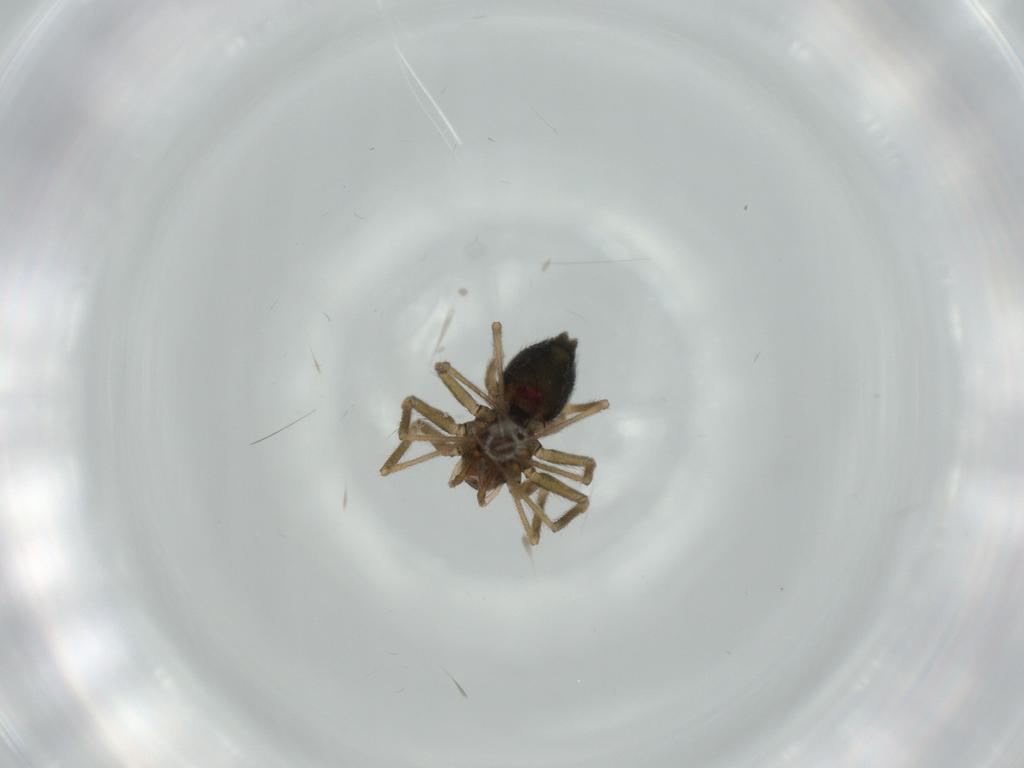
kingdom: Animalia
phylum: Arthropoda
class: Arachnida
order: Araneae
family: Linyphiidae
